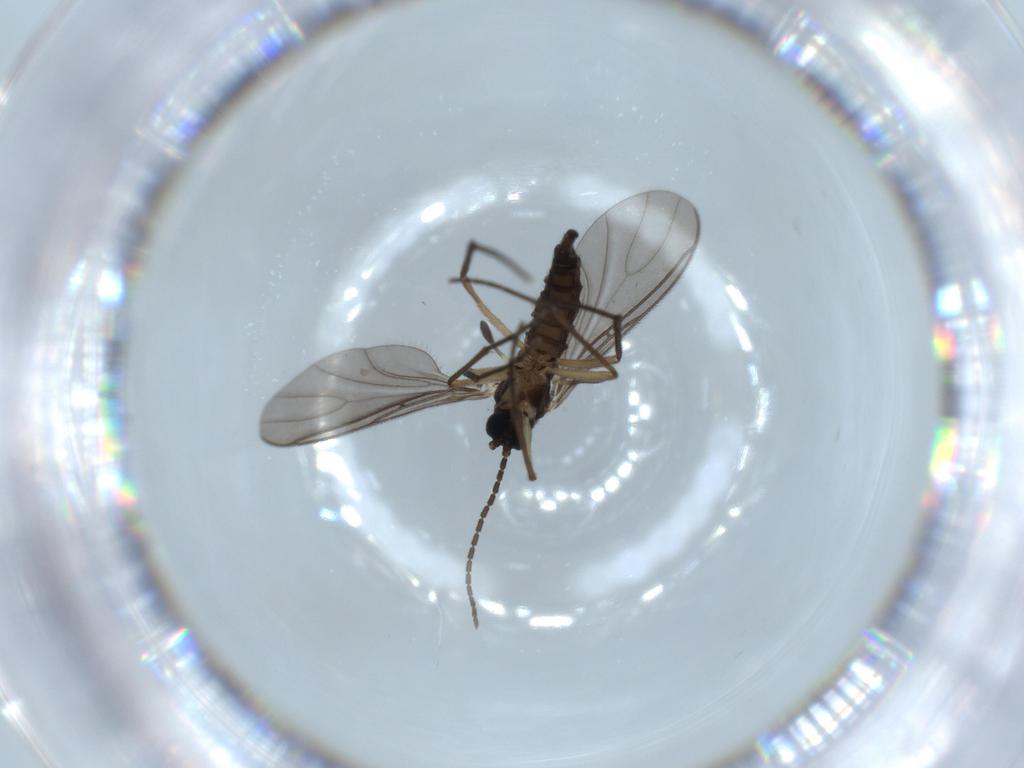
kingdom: Animalia
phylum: Arthropoda
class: Insecta
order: Diptera
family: Sciaridae
